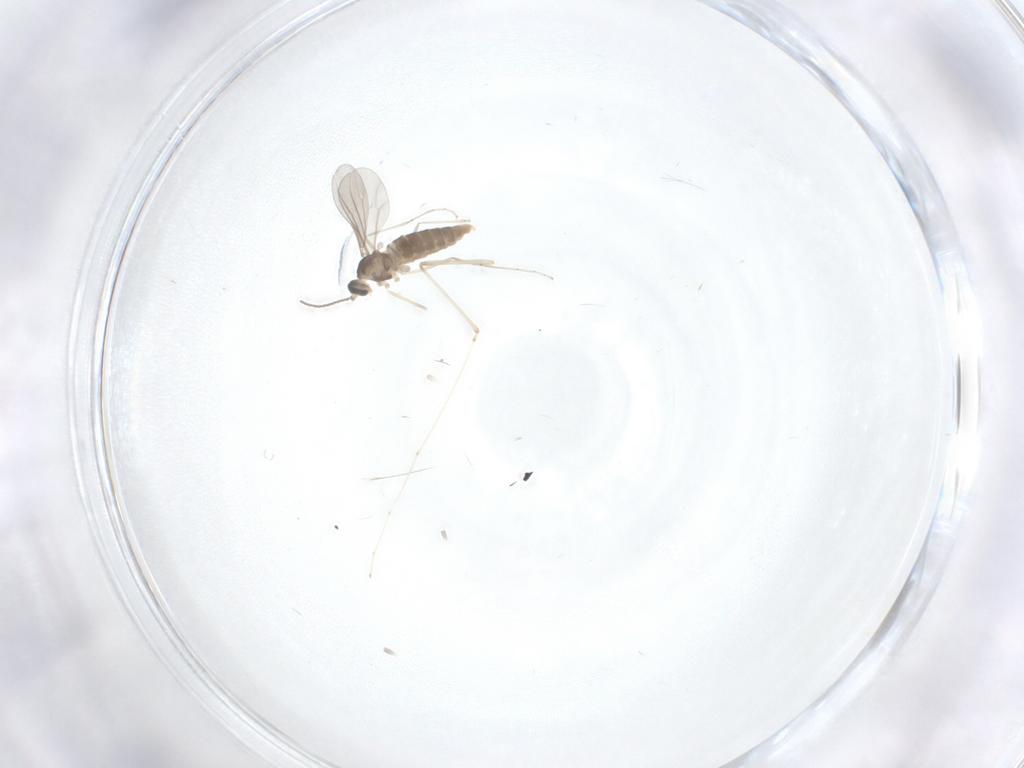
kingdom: Animalia
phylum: Arthropoda
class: Insecta
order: Diptera
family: Cecidomyiidae
